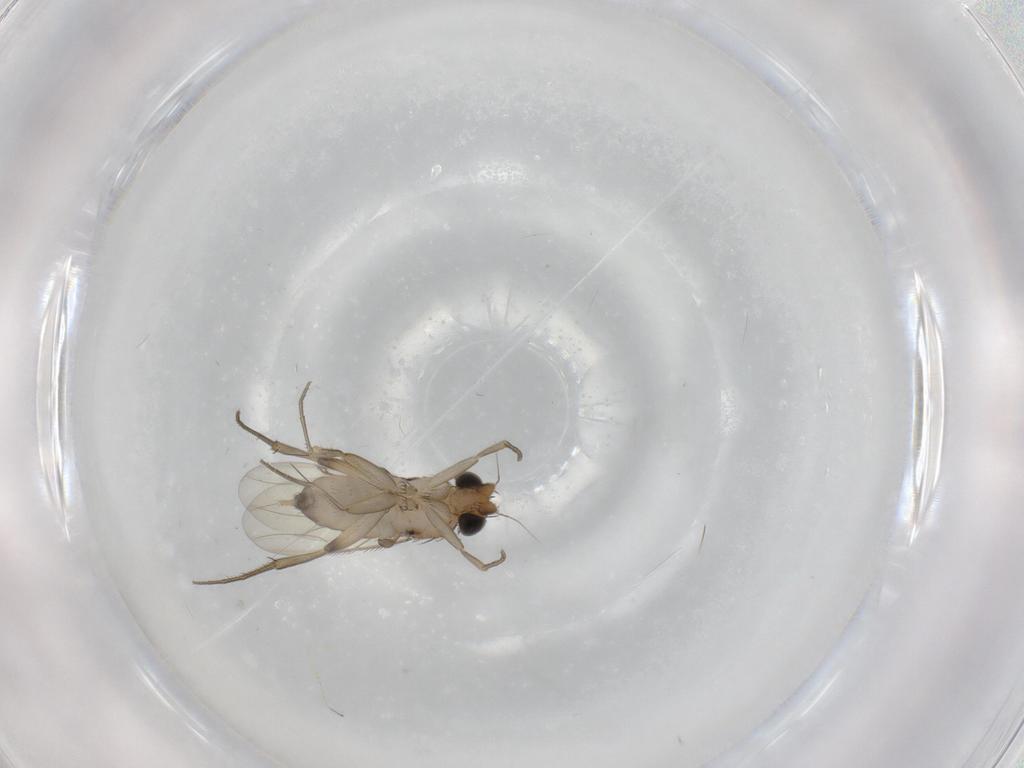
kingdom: Animalia
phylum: Arthropoda
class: Insecta
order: Diptera
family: Phoridae
